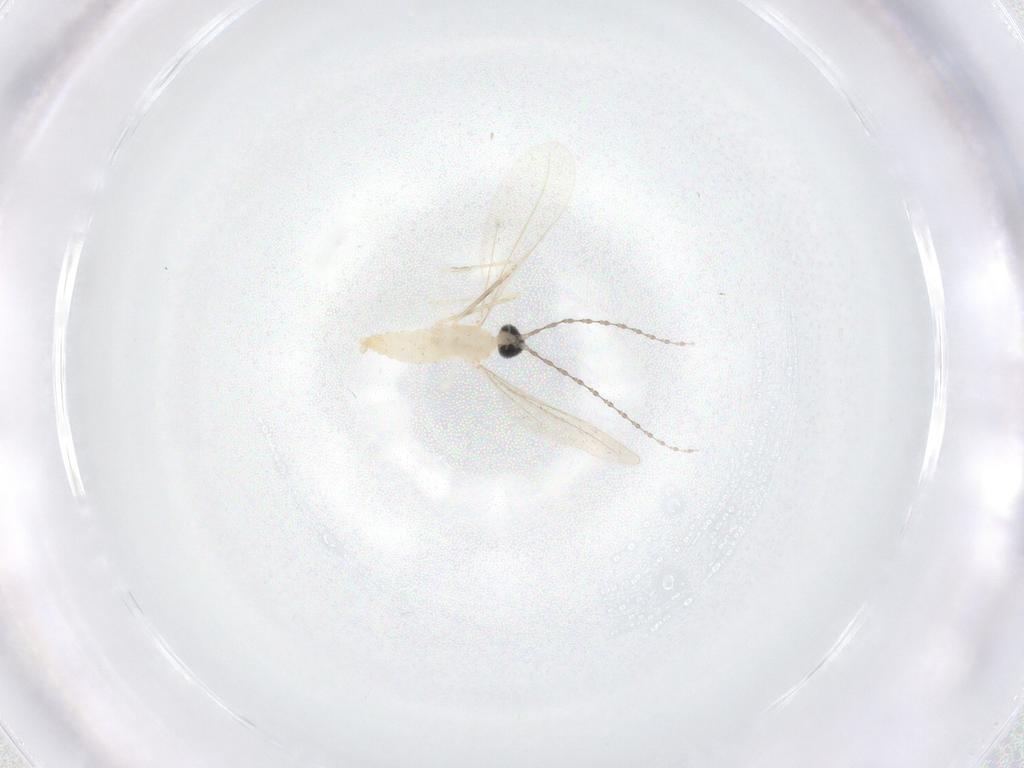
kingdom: Animalia
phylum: Arthropoda
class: Insecta
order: Diptera
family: Cecidomyiidae
